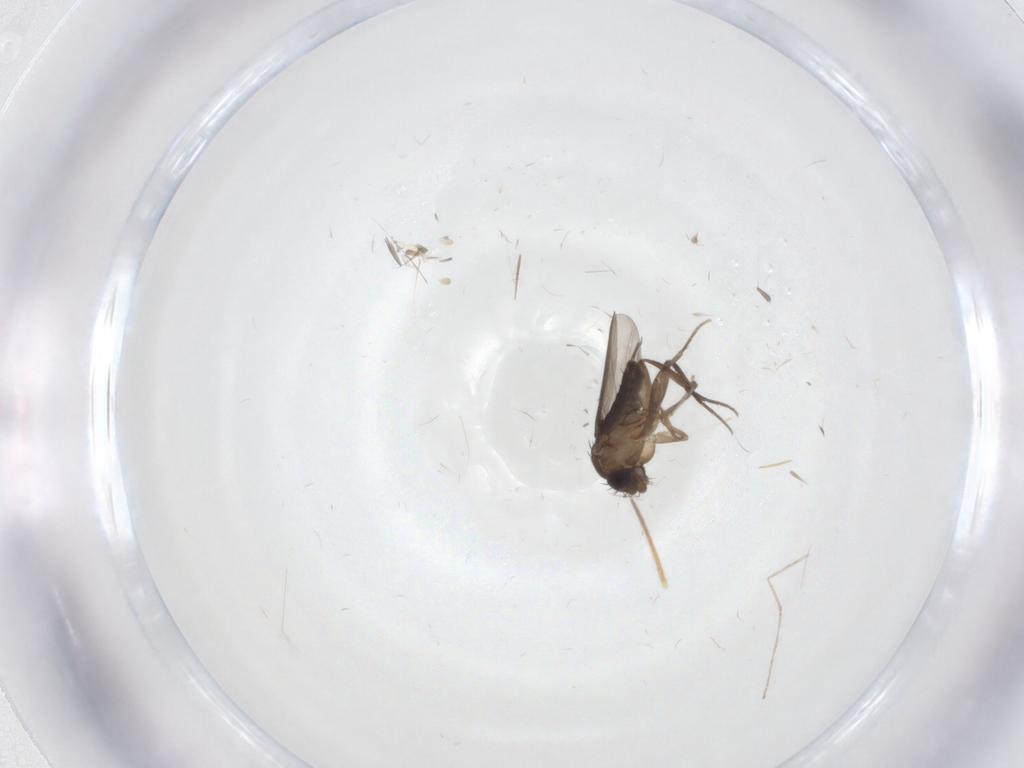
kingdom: Animalia
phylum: Arthropoda
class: Insecta
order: Diptera
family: Phoridae
